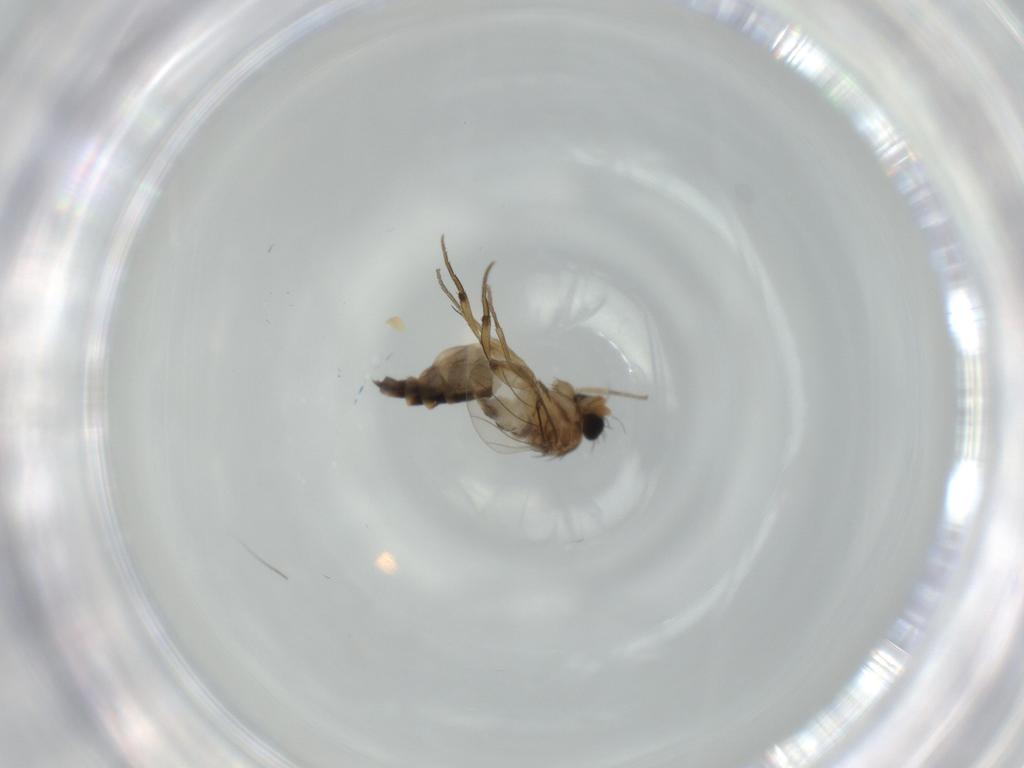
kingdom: Animalia
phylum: Arthropoda
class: Insecta
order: Diptera
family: Phoridae
